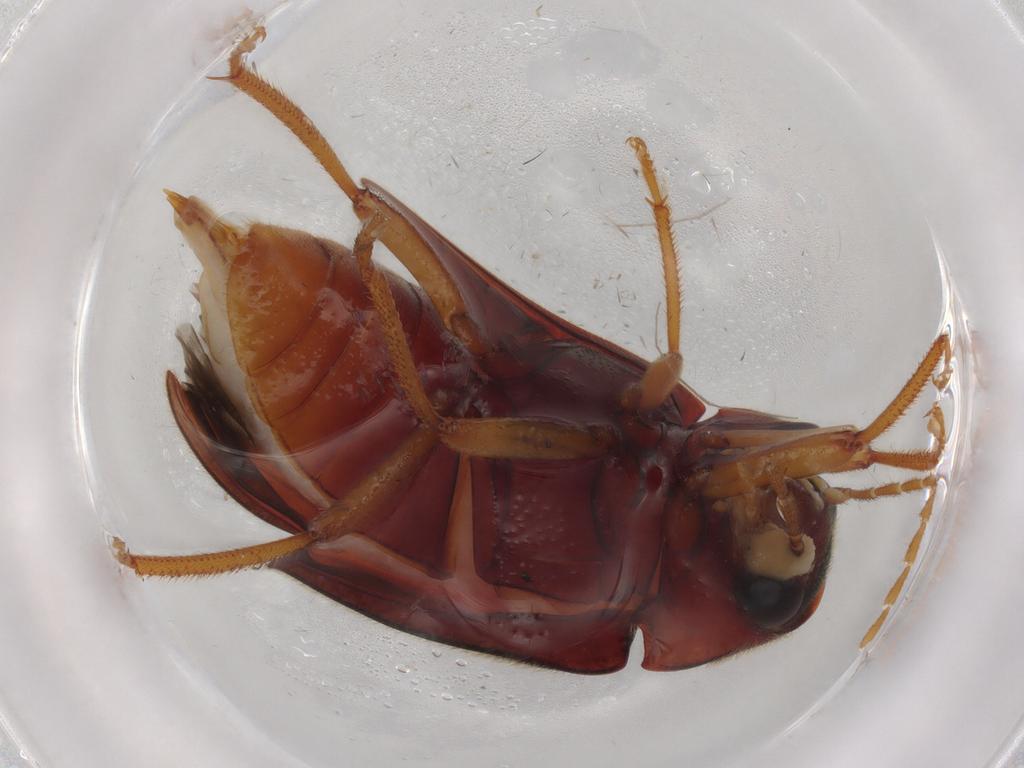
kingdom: Animalia
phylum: Arthropoda
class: Insecta
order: Coleoptera
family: Ptilodactylidae
